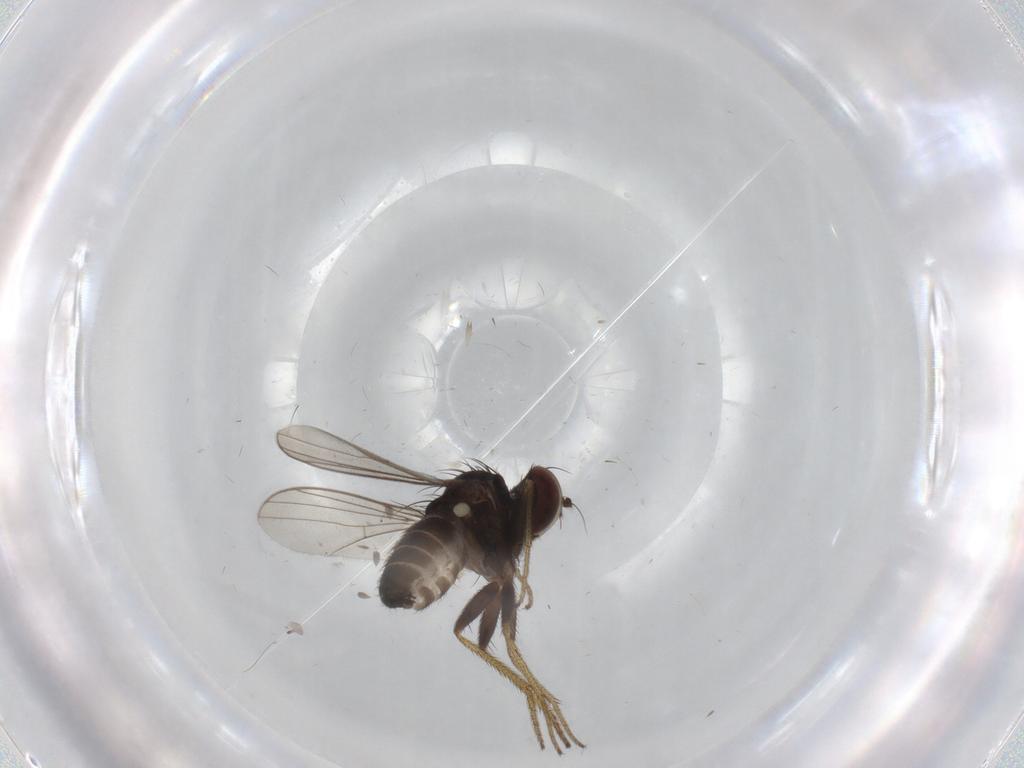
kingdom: Animalia
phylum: Arthropoda
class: Insecta
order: Diptera
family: Dolichopodidae
